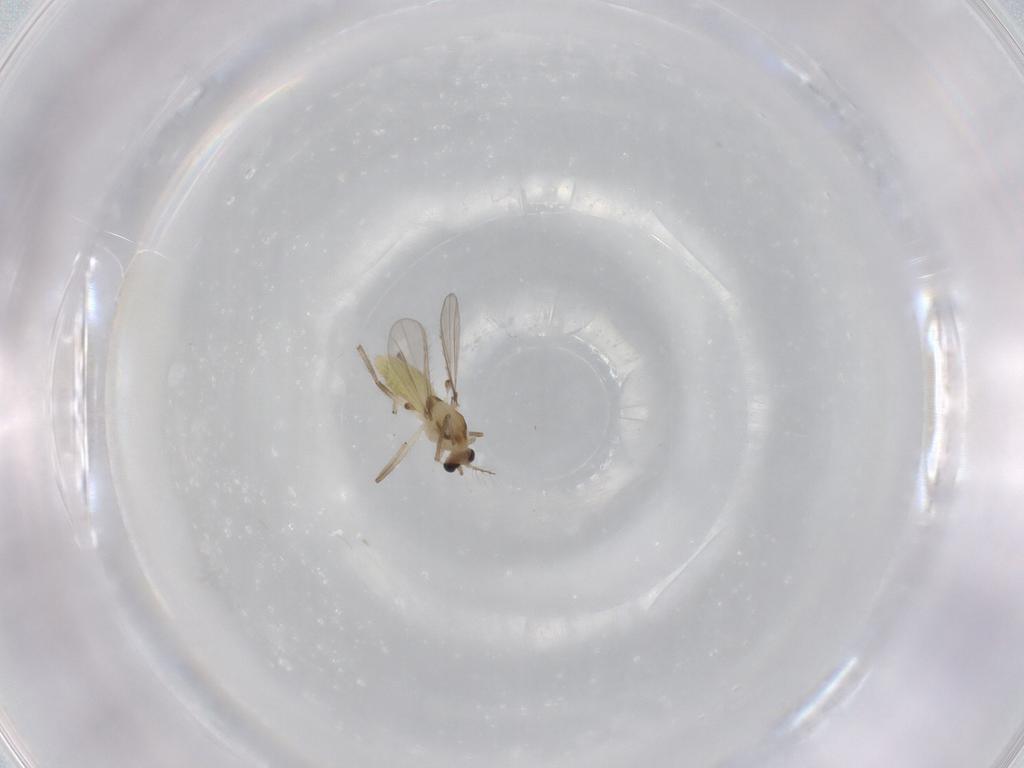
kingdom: Animalia
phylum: Arthropoda
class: Insecta
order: Diptera
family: Chironomidae
